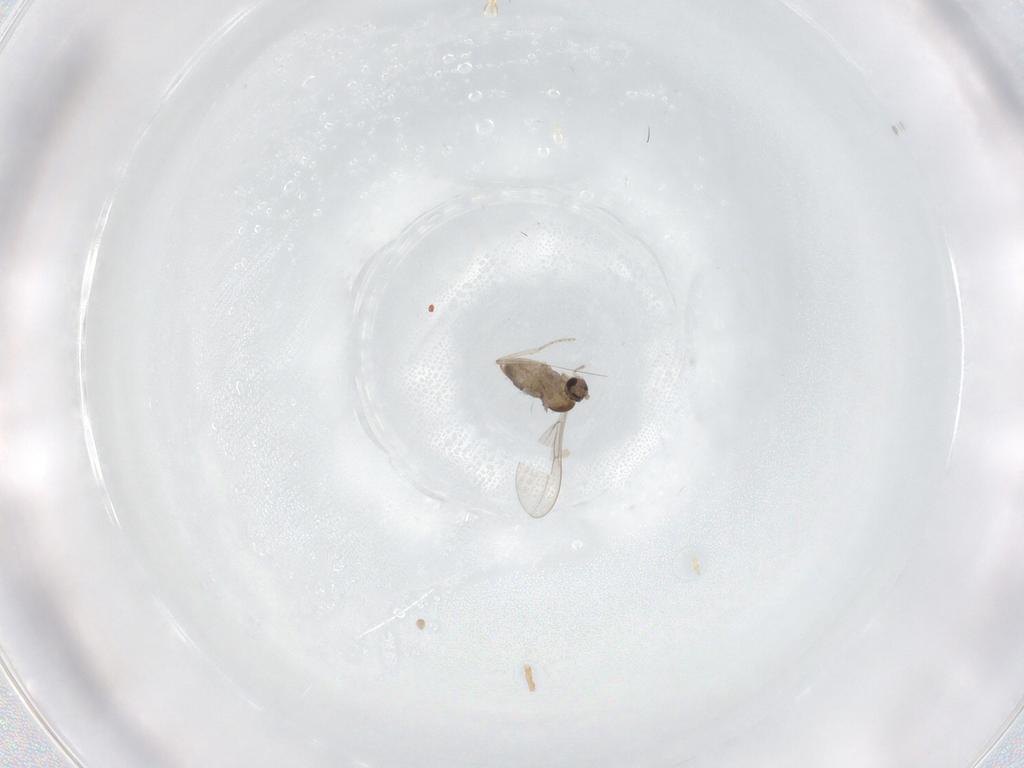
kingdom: Animalia
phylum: Arthropoda
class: Insecta
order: Diptera
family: Cecidomyiidae
